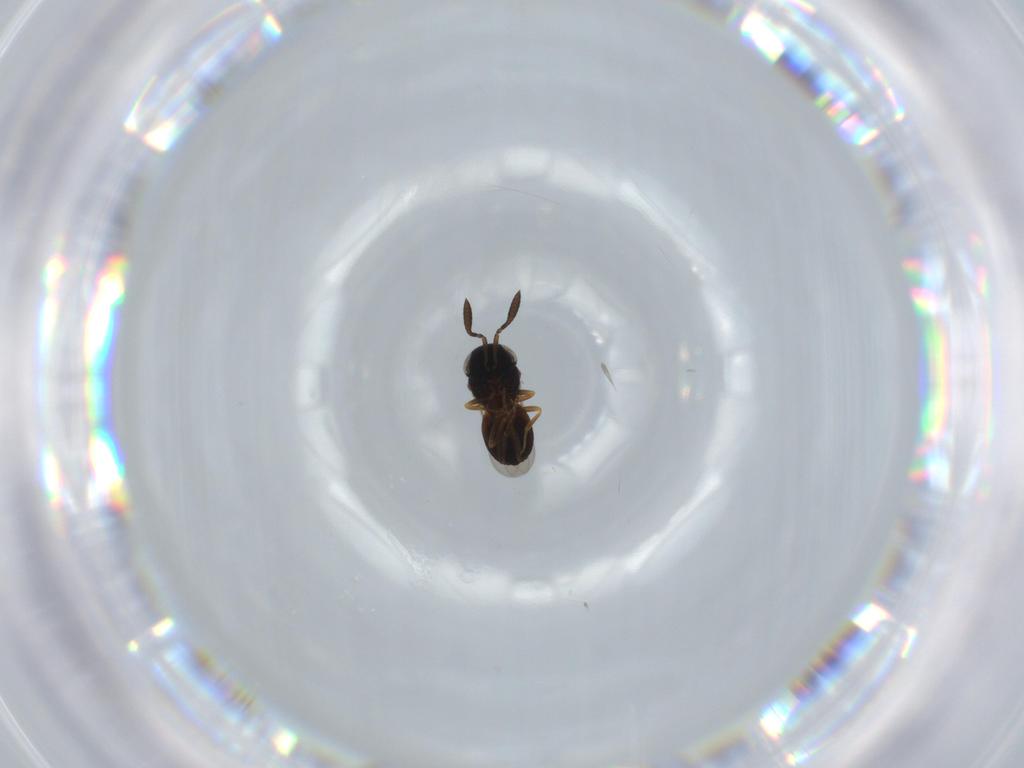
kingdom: Animalia
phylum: Arthropoda
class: Insecta
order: Coleoptera
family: Curculionidae
